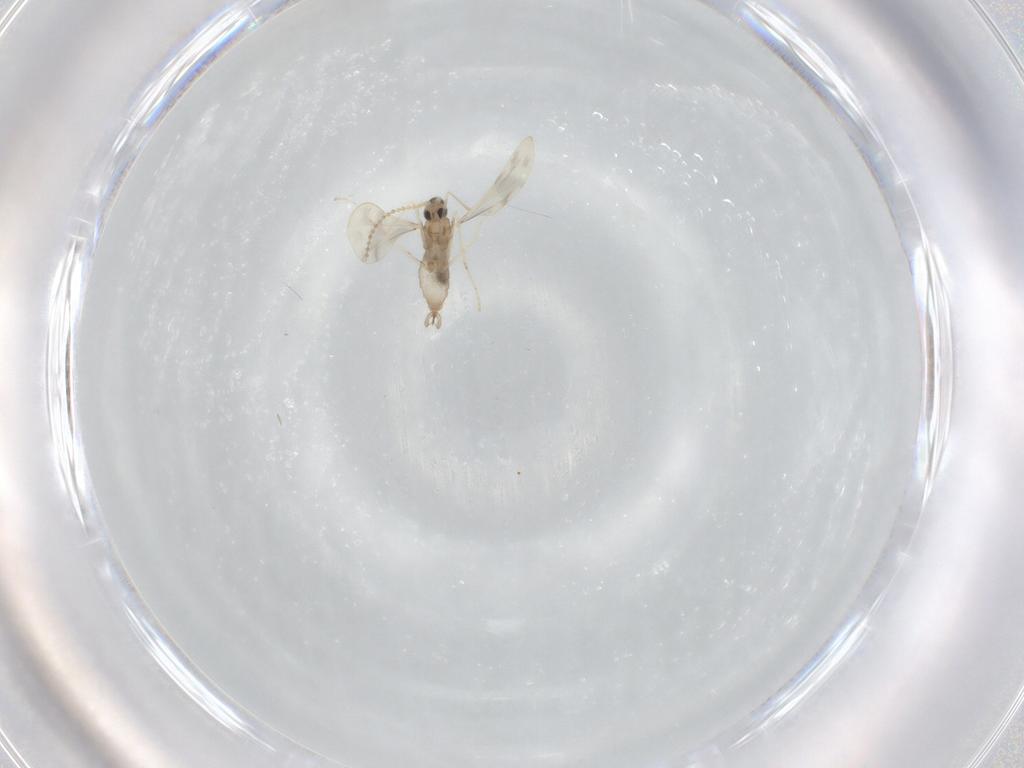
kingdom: Animalia
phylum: Arthropoda
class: Insecta
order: Diptera
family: Cecidomyiidae
